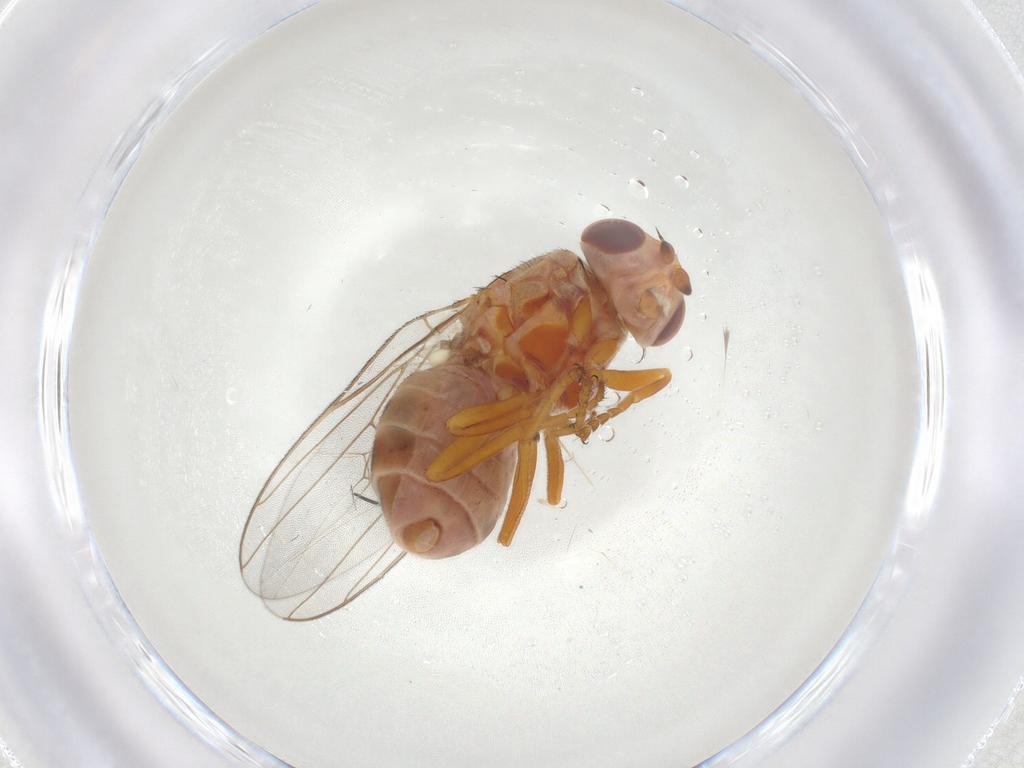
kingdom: Animalia
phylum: Arthropoda
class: Insecta
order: Diptera
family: Chloropidae
